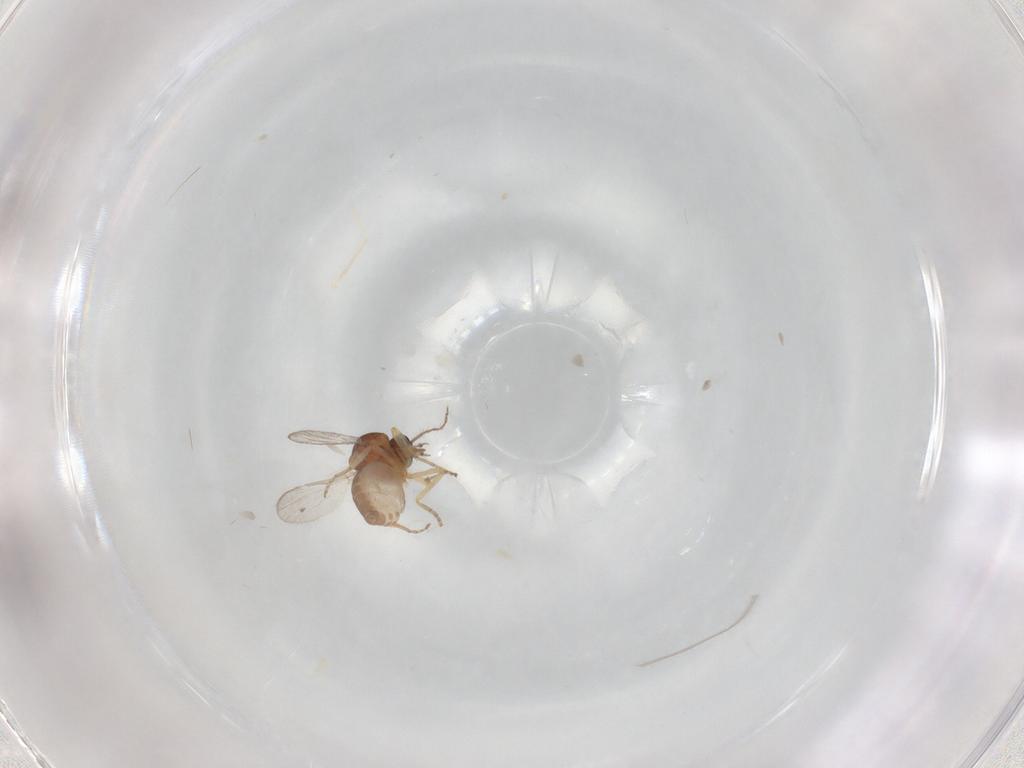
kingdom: Animalia
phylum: Arthropoda
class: Insecta
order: Diptera
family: Ceratopogonidae
